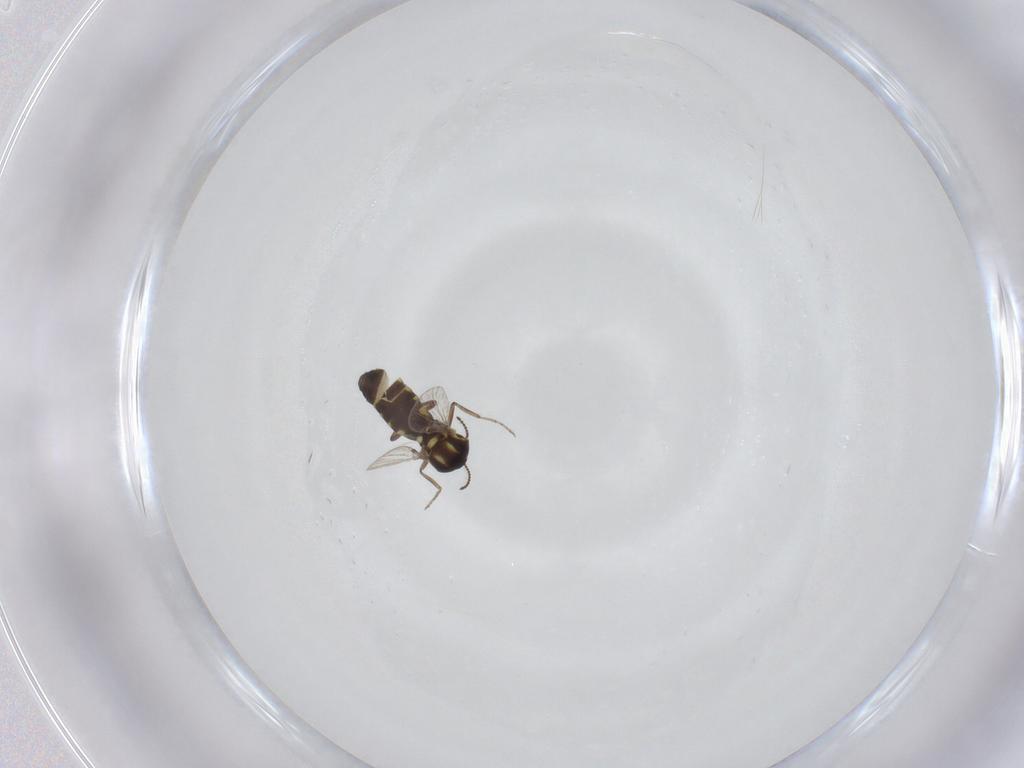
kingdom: Animalia
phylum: Arthropoda
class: Insecta
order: Diptera
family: Ceratopogonidae
